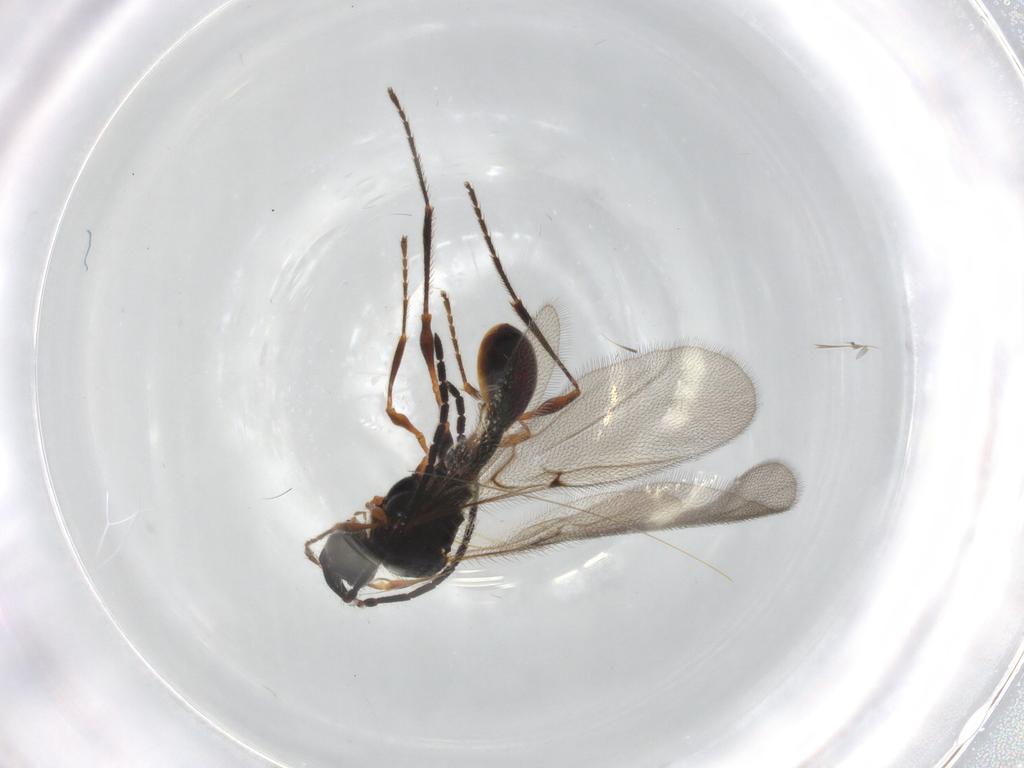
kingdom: Animalia
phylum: Arthropoda
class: Insecta
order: Hymenoptera
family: Diapriidae
